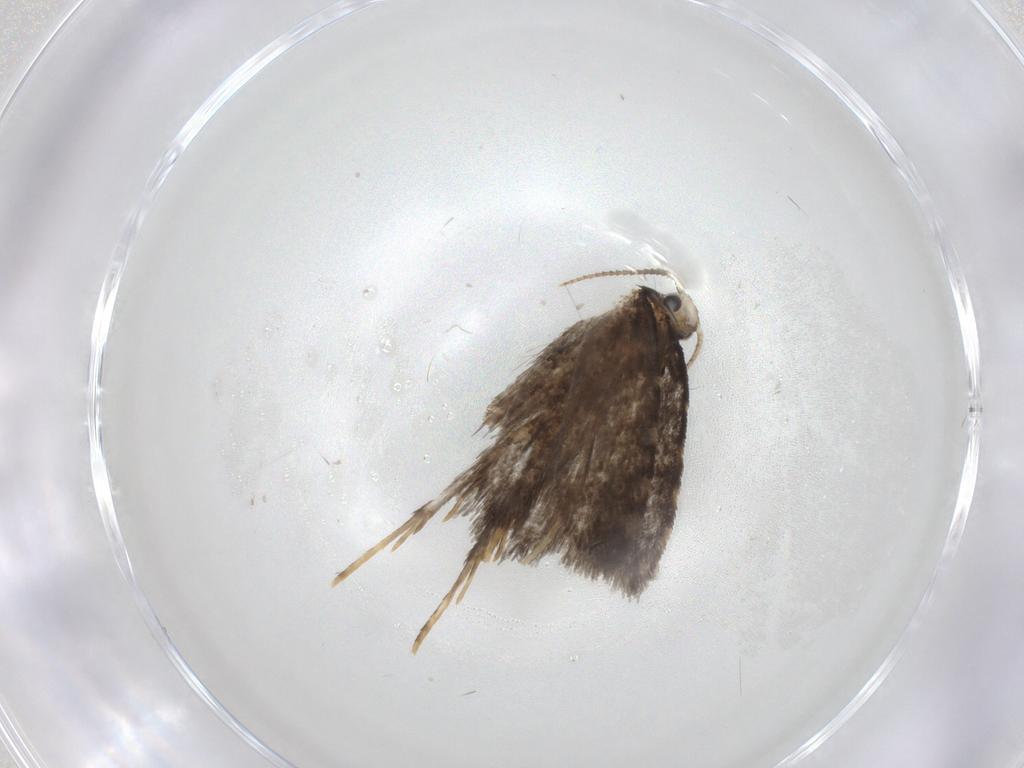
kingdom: Animalia
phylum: Arthropoda
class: Insecta
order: Lepidoptera
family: Psychidae
